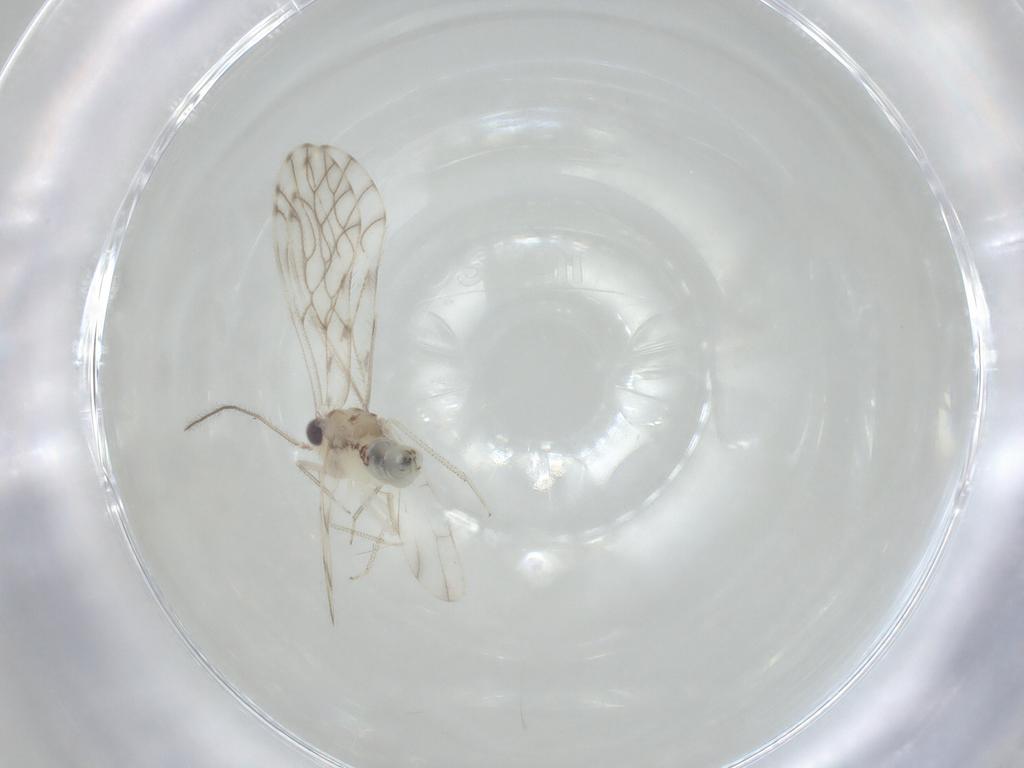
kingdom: Animalia
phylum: Arthropoda
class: Insecta
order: Psocodea
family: Philotarsidae
